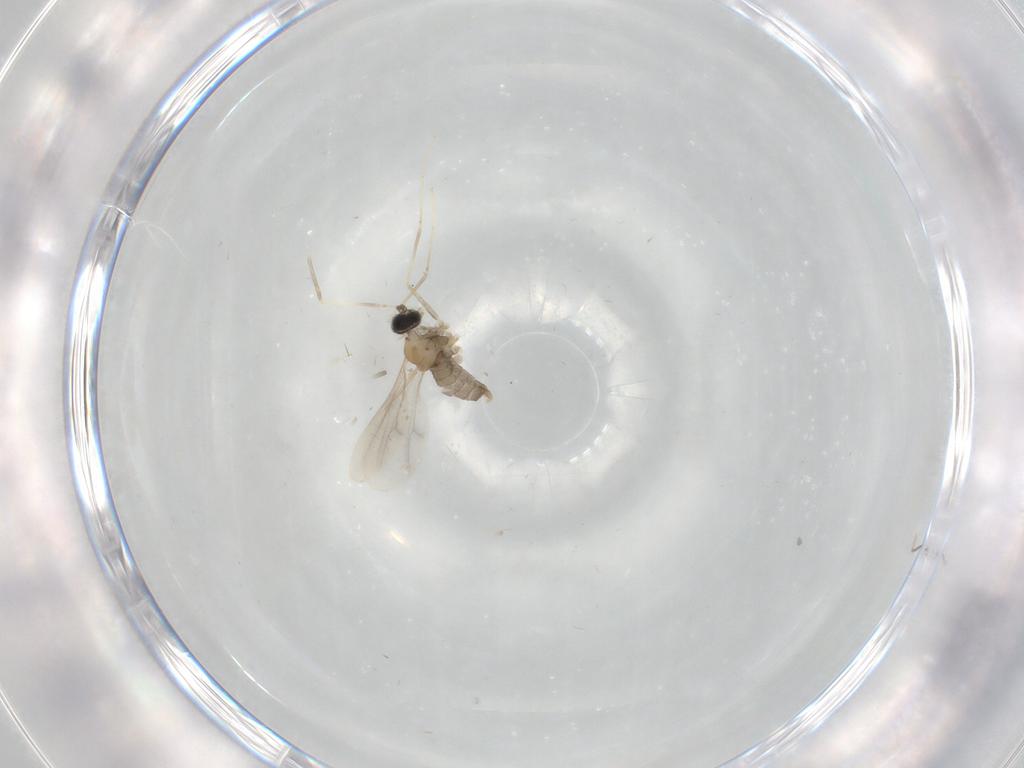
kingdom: Animalia
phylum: Arthropoda
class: Insecta
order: Diptera
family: Cecidomyiidae
